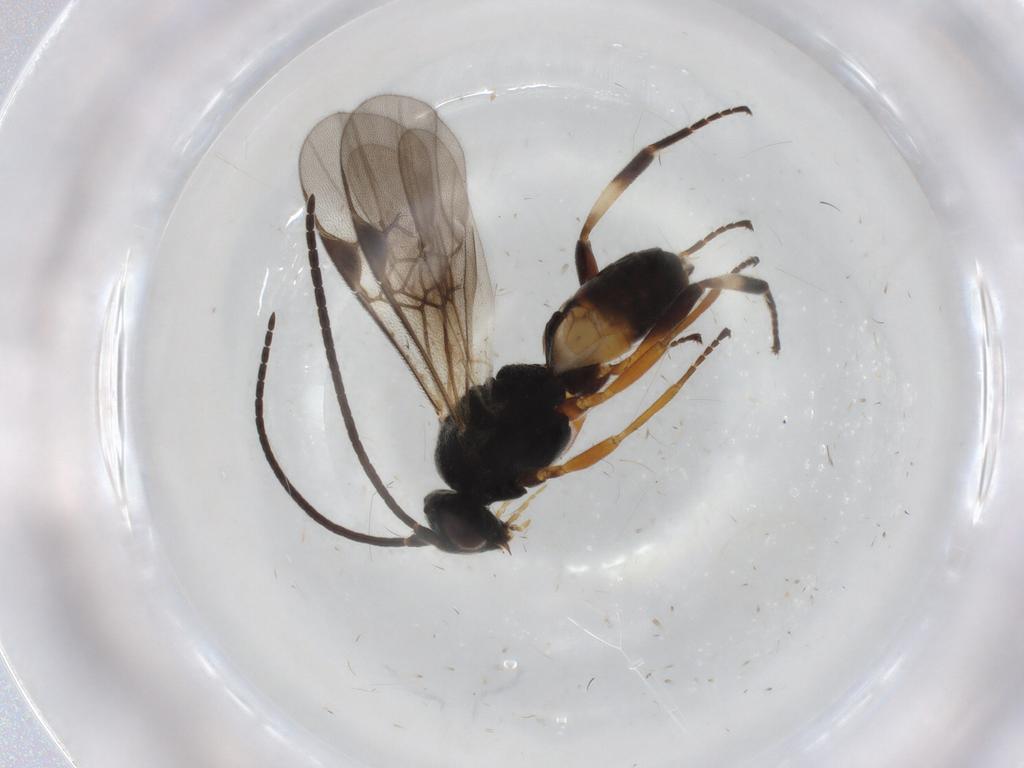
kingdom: Animalia
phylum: Arthropoda
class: Insecta
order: Hymenoptera
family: Braconidae
